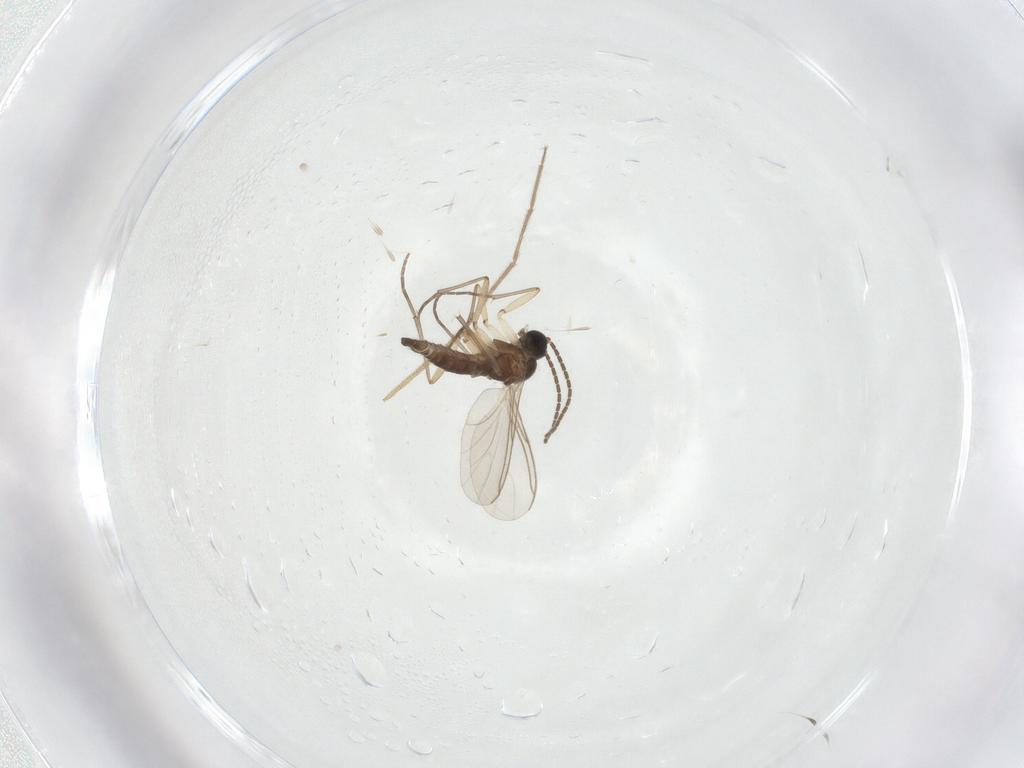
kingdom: Animalia
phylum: Arthropoda
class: Insecta
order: Diptera
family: Sciaridae
